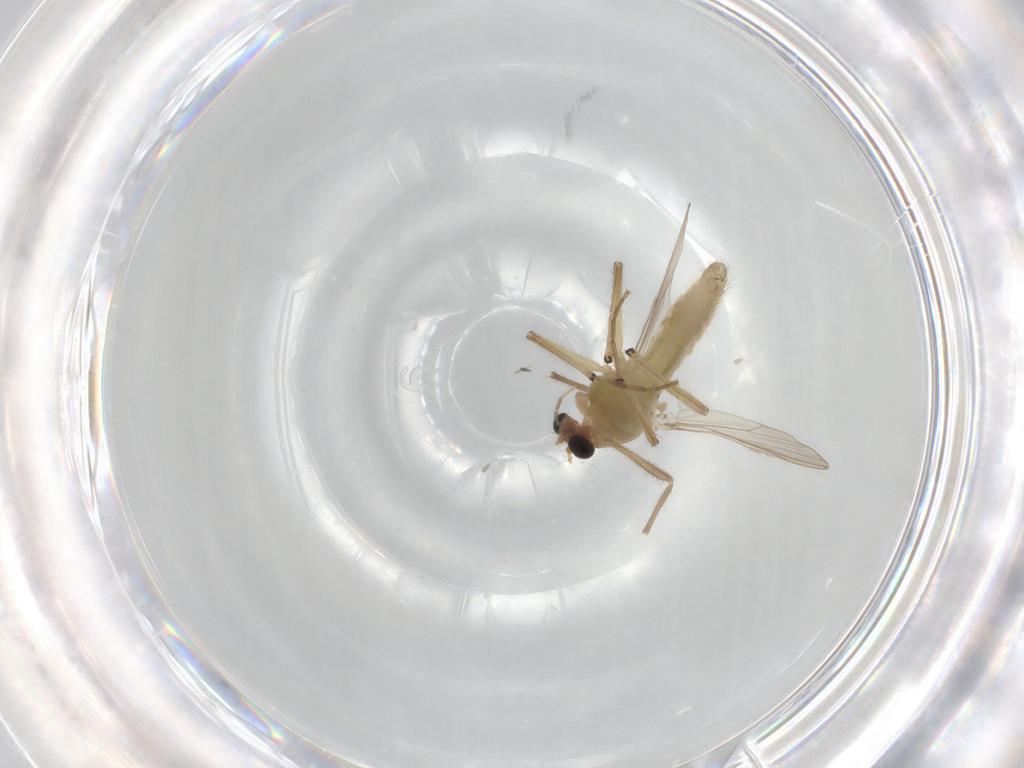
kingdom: Animalia
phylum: Arthropoda
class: Insecta
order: Diptera
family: Chironomidae
